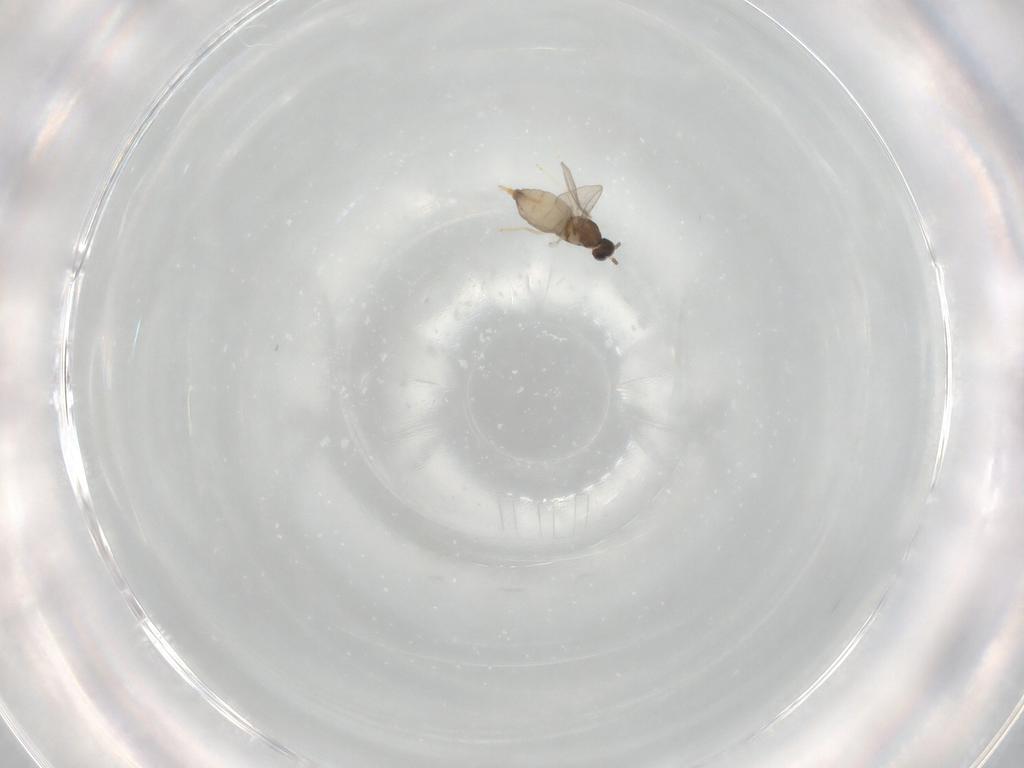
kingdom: Animalia
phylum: Arthropoda
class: Insecta
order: Diptera
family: Cecidomyiidae
